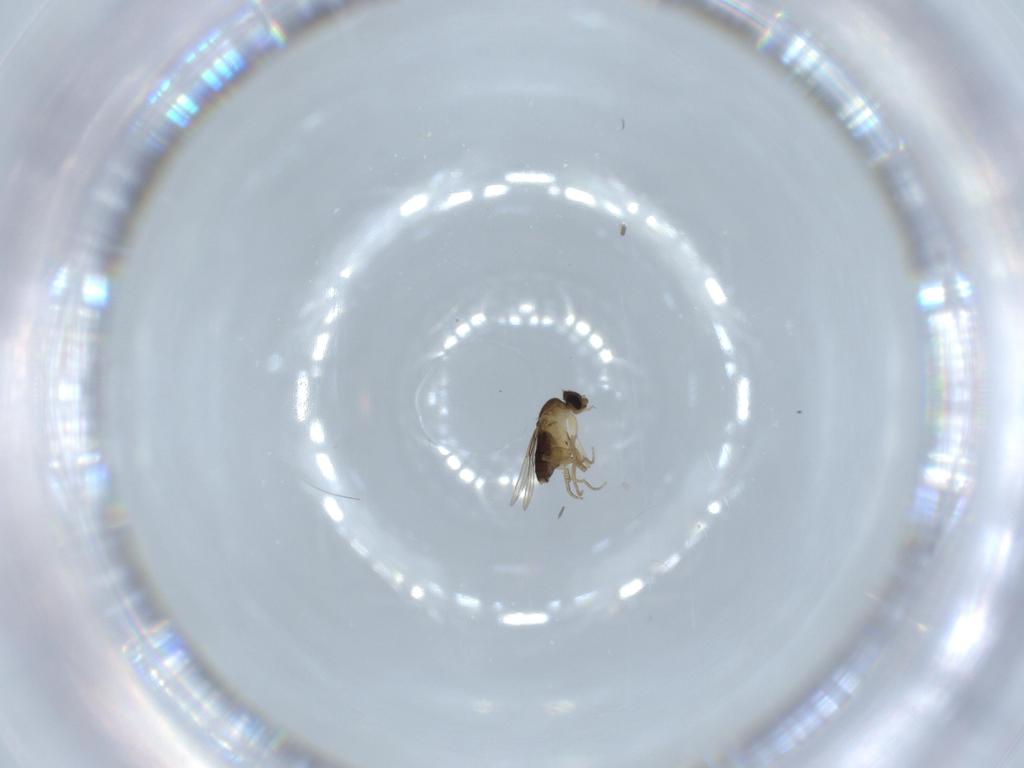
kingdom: Animalia
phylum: Arthropoda
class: Insecta
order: Diptera
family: Phoridae
